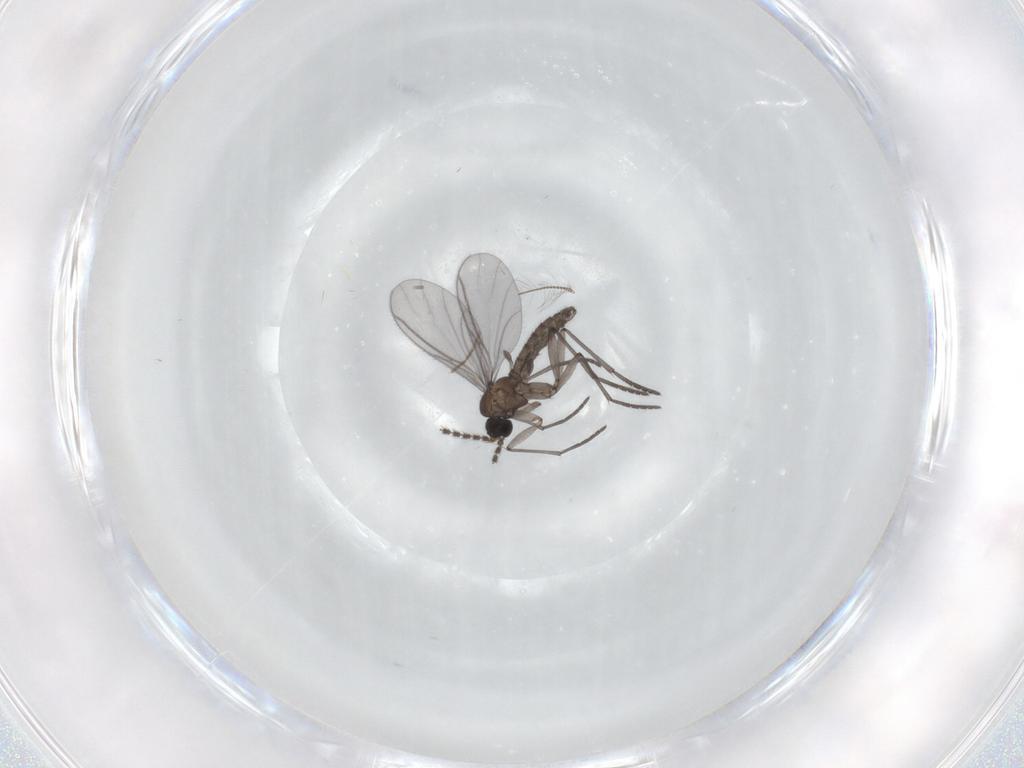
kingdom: Animalia
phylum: Arthropoda
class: Insecta
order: Diptera
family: Chironomidae
